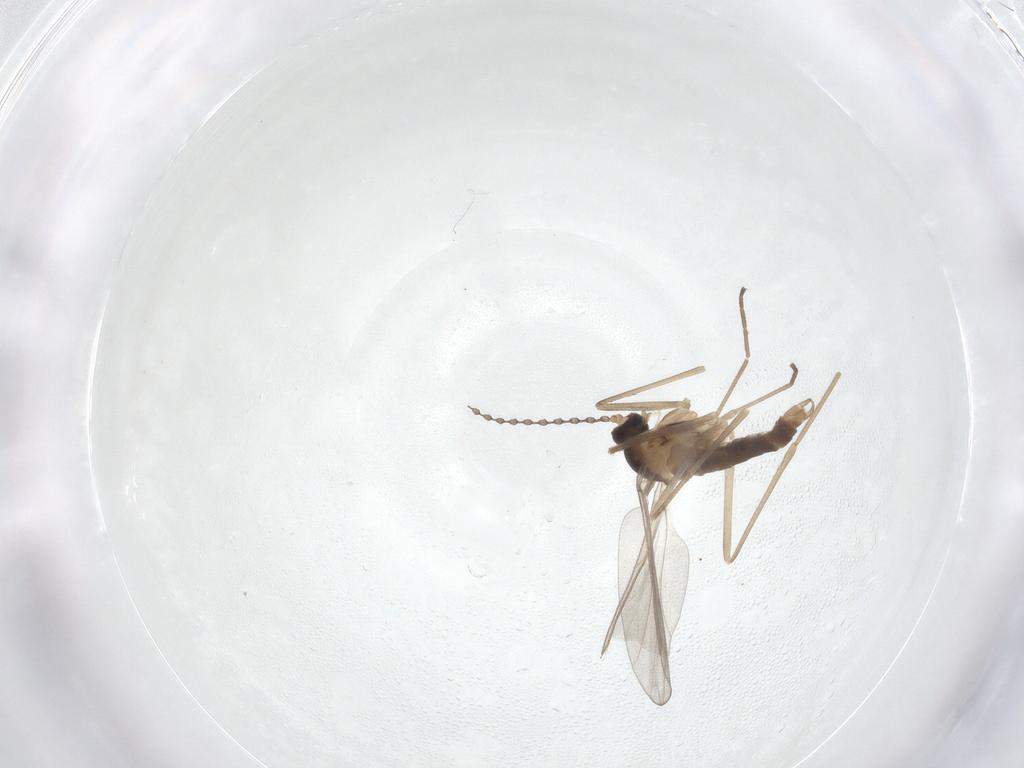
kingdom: Animalia
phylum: Arthropoda
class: Insecta
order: Diptera
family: Cecidomyiidae
